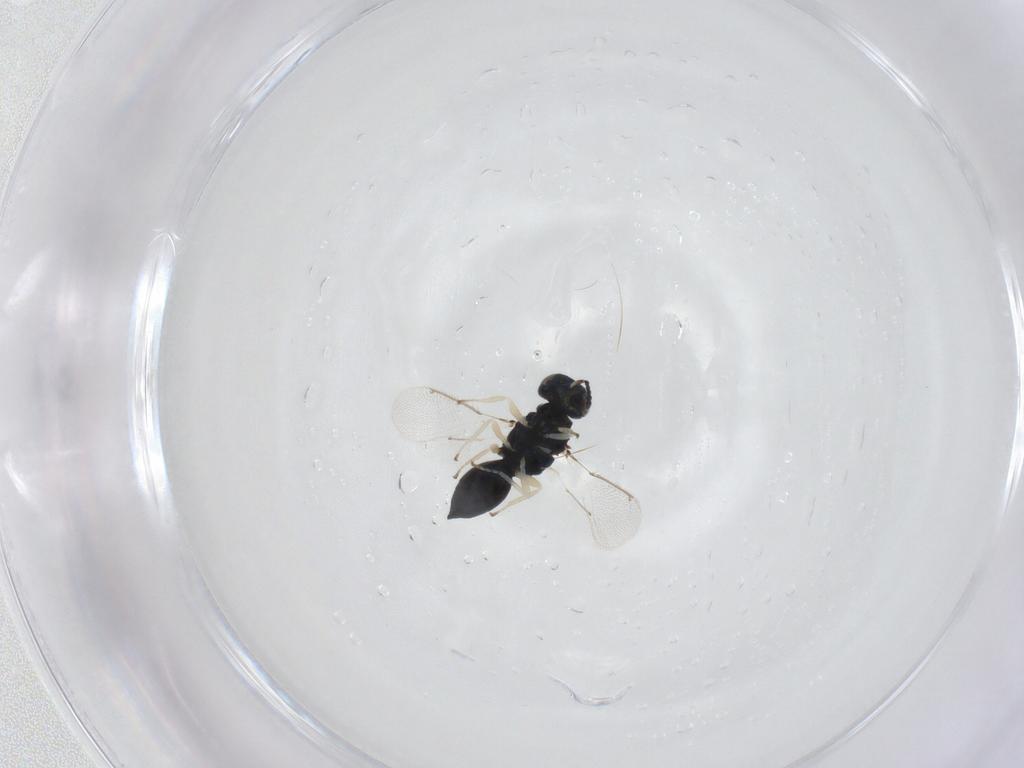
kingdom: Animalia
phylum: Arthropoda
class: Insecta
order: Hymenoptera
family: Eulophidae
